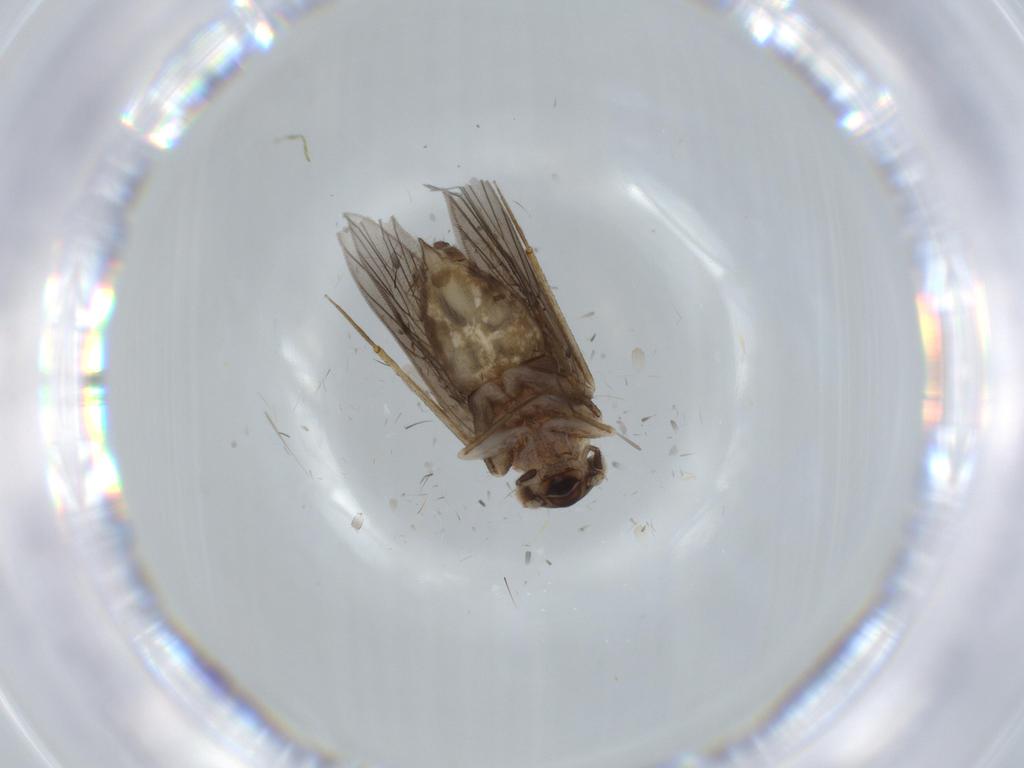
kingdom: Animalia
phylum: Arthropoda
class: Insecta
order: Psocodea
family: Lepidopsocidae
